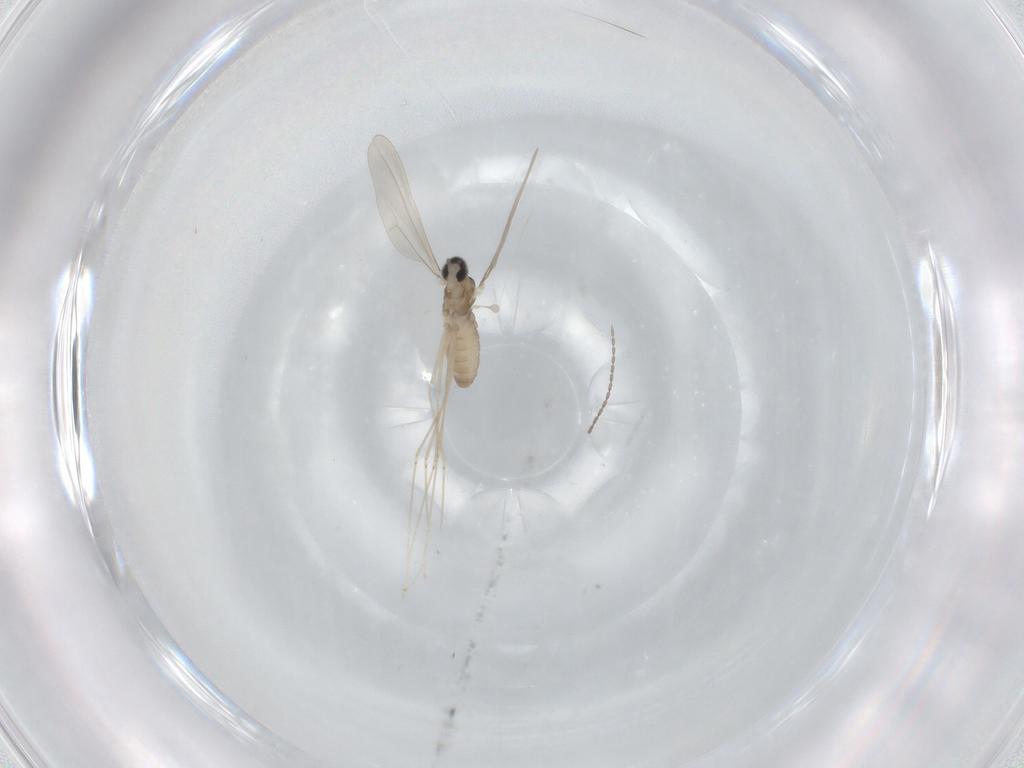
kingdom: Animalia
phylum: Arthropoda
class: Insecta
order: Diptera
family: Cecidomyiidae
